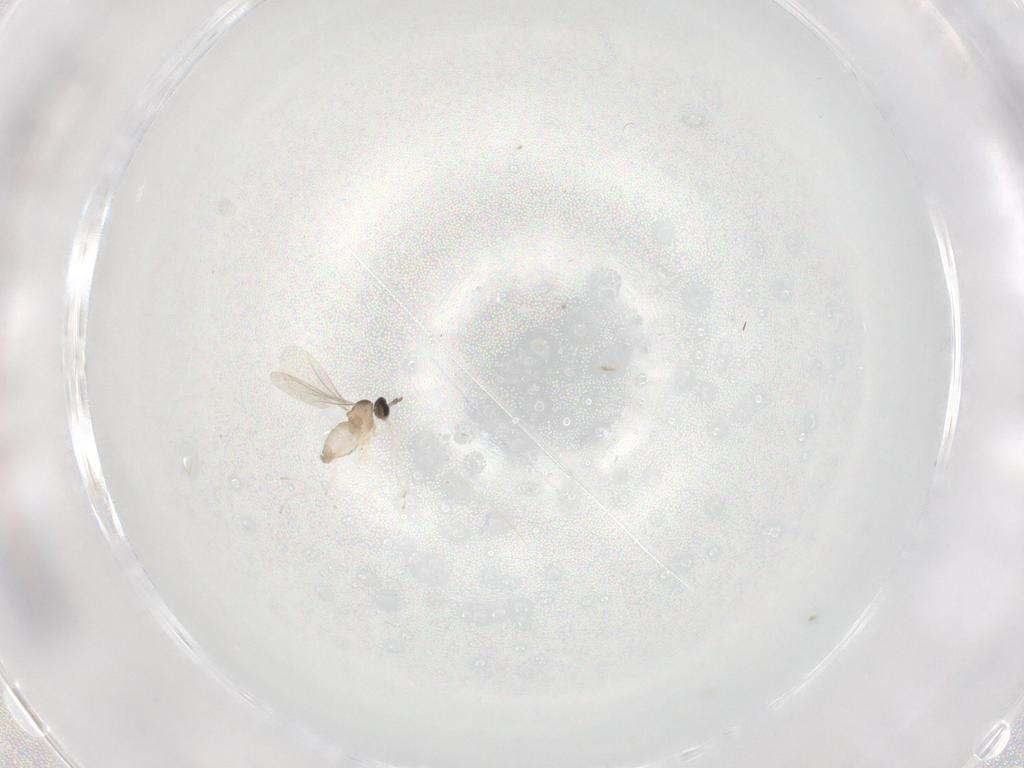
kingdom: Animalia
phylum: Arthropoda
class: Insecta
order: Diptera
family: Cecidomyiidae
